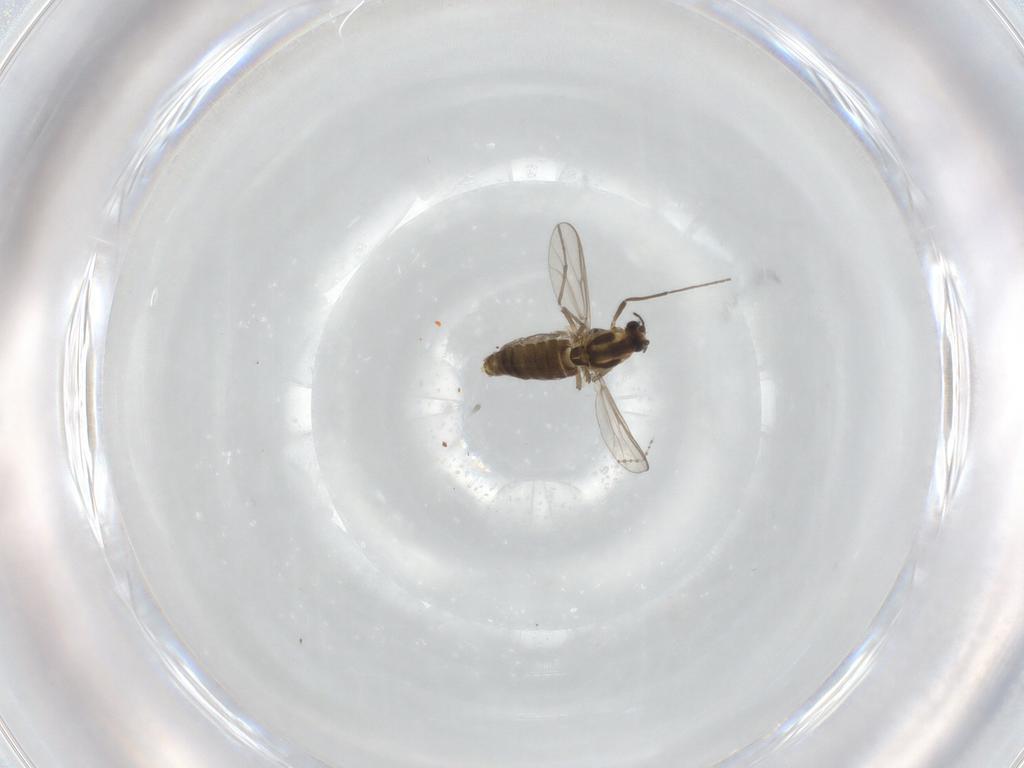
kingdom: Animalia
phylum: Arthropoda
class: Insecta
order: Diptera
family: Cecidomyiidae
